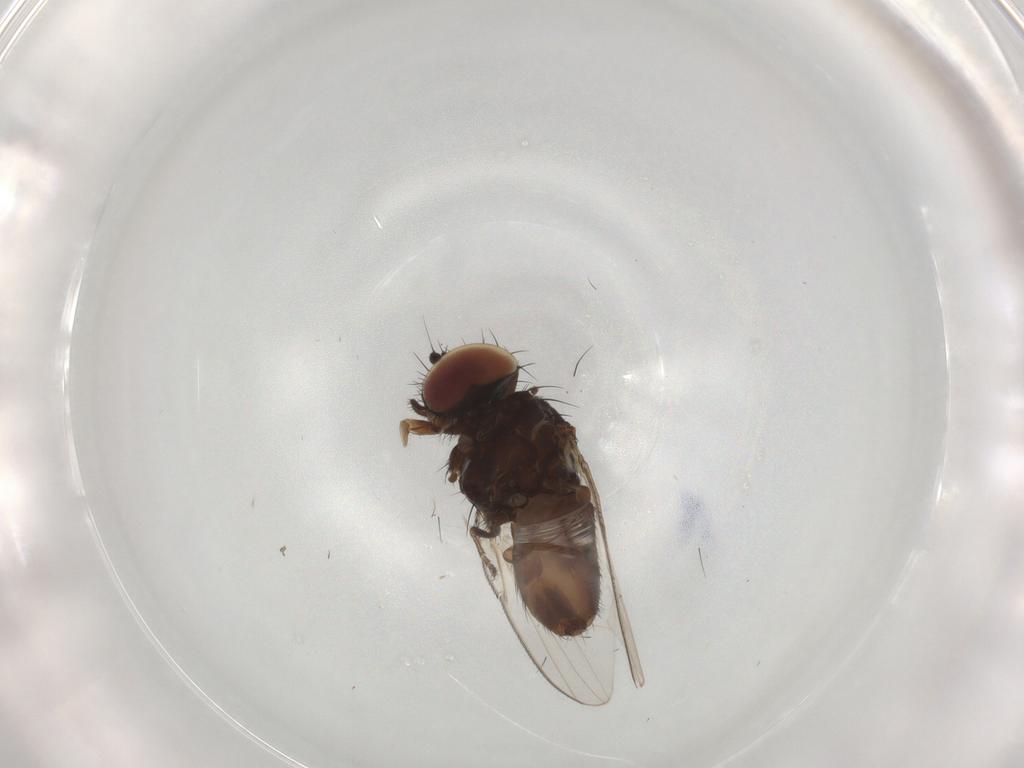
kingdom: Animalia
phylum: Arthropoda
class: Insecta
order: Diptera
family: Milichiidae
